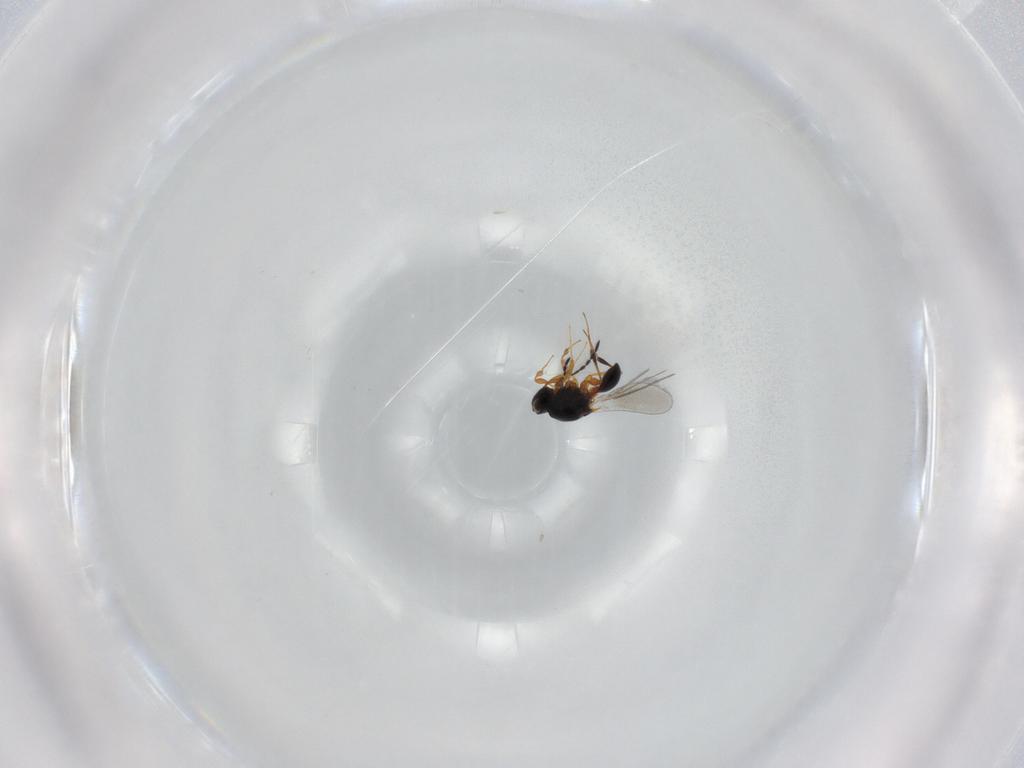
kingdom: Animalia
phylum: Arthropoda
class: Insecta
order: Hymenoptera
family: Platygastridae
